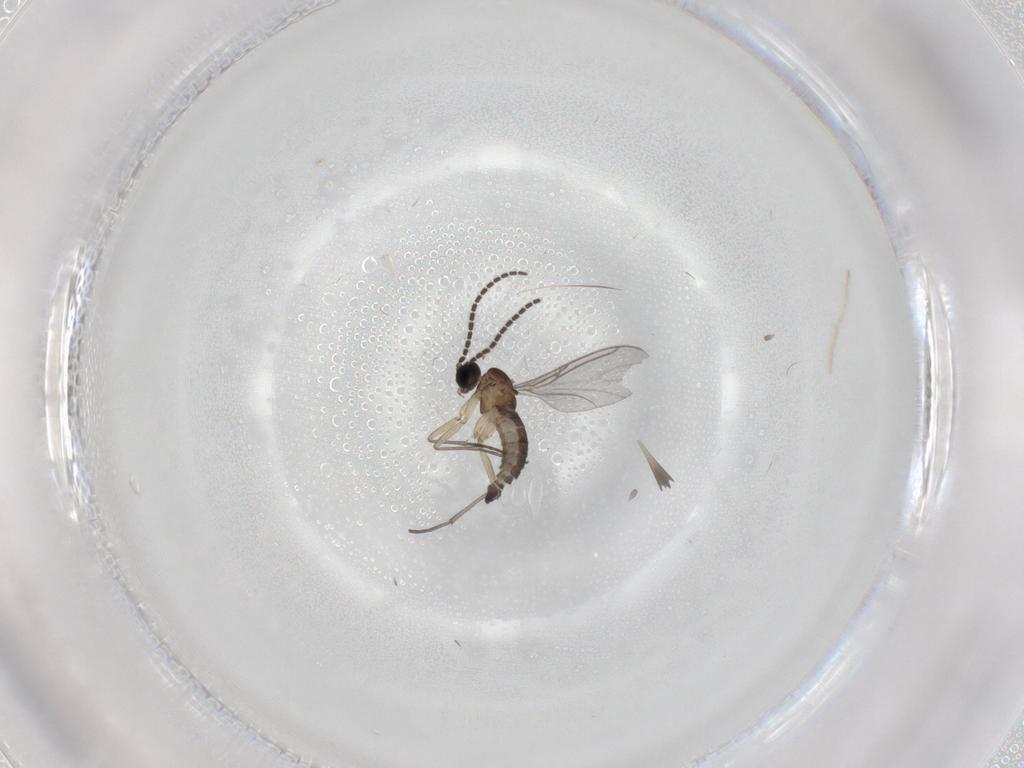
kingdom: Animalia
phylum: Arthropoda
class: Insecta
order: Diptera
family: Sciaridae
